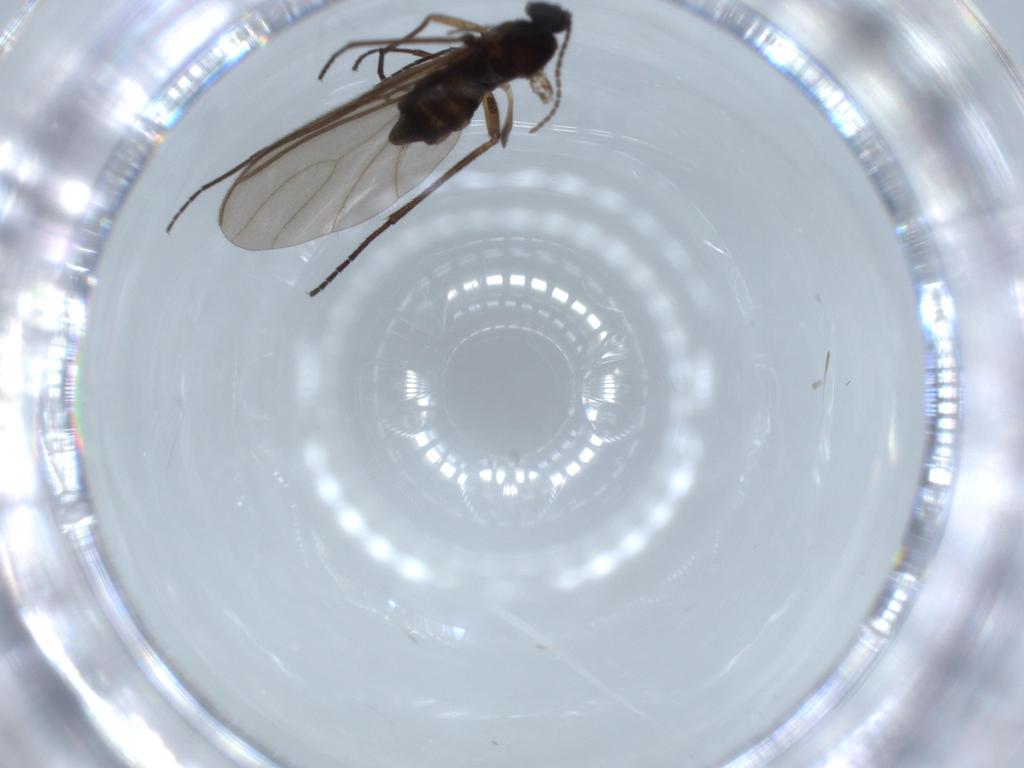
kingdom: Animalia
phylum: Arthropoda
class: Insecta
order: Diptera
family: Sciaridae
